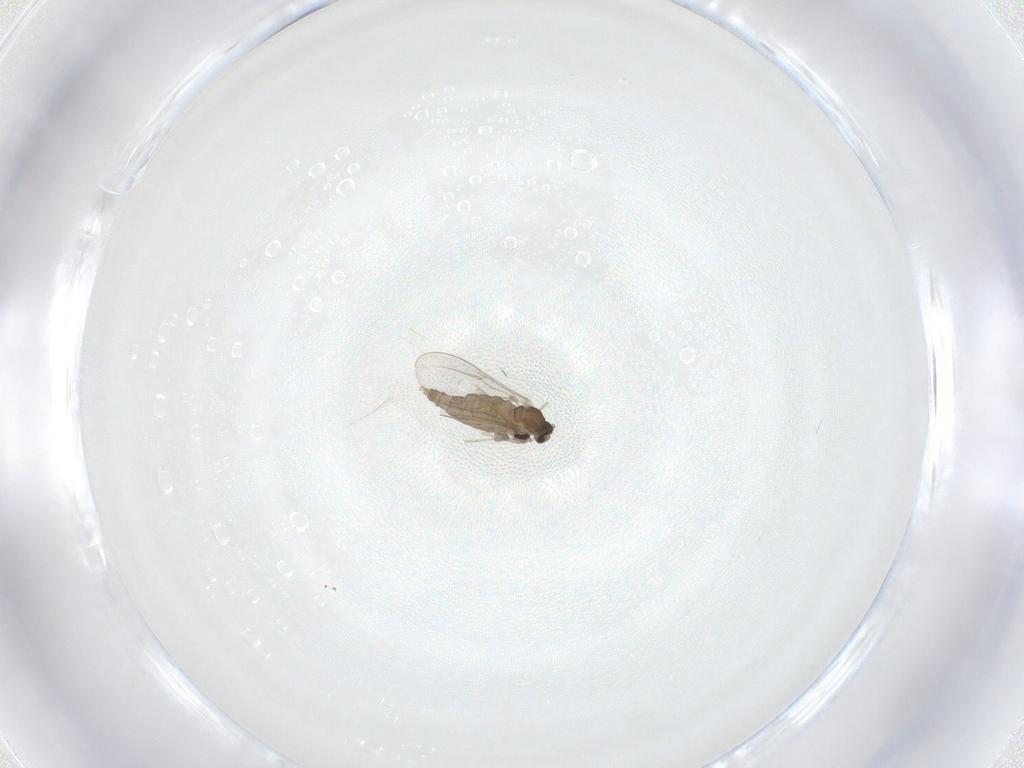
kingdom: Animalia
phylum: Arthropoda
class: Insecta
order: Diptera
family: Cecidomyiidae
